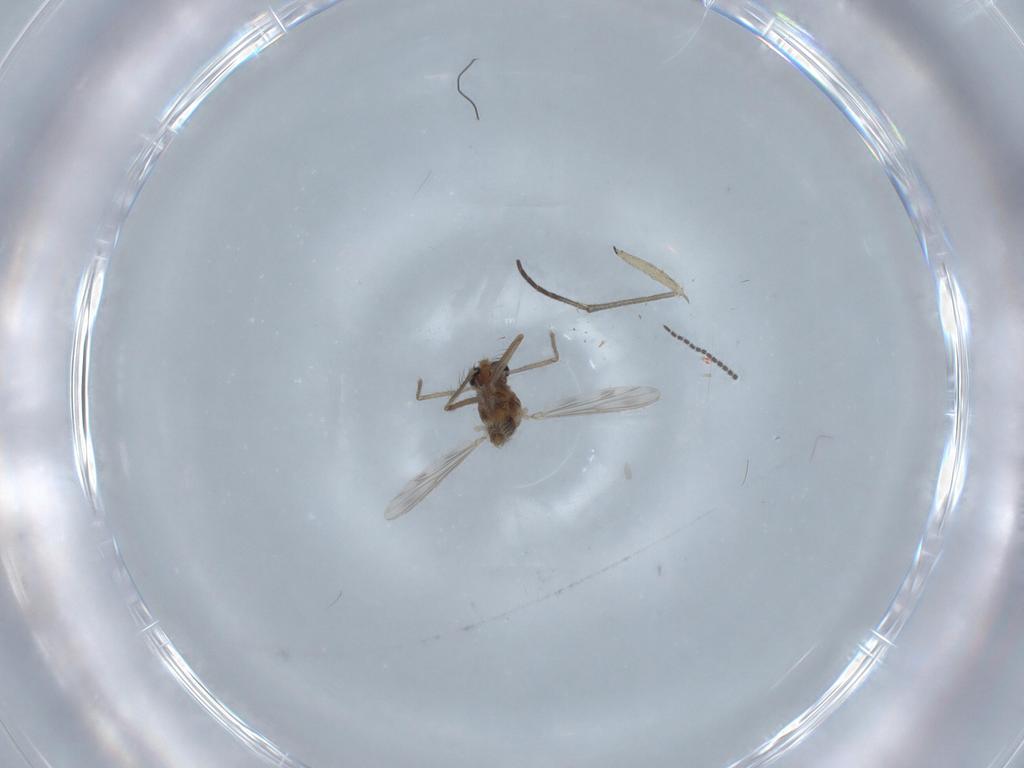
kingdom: Animalia
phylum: Arthropoda
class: Insecta
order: Diptera
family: Chironomidae
